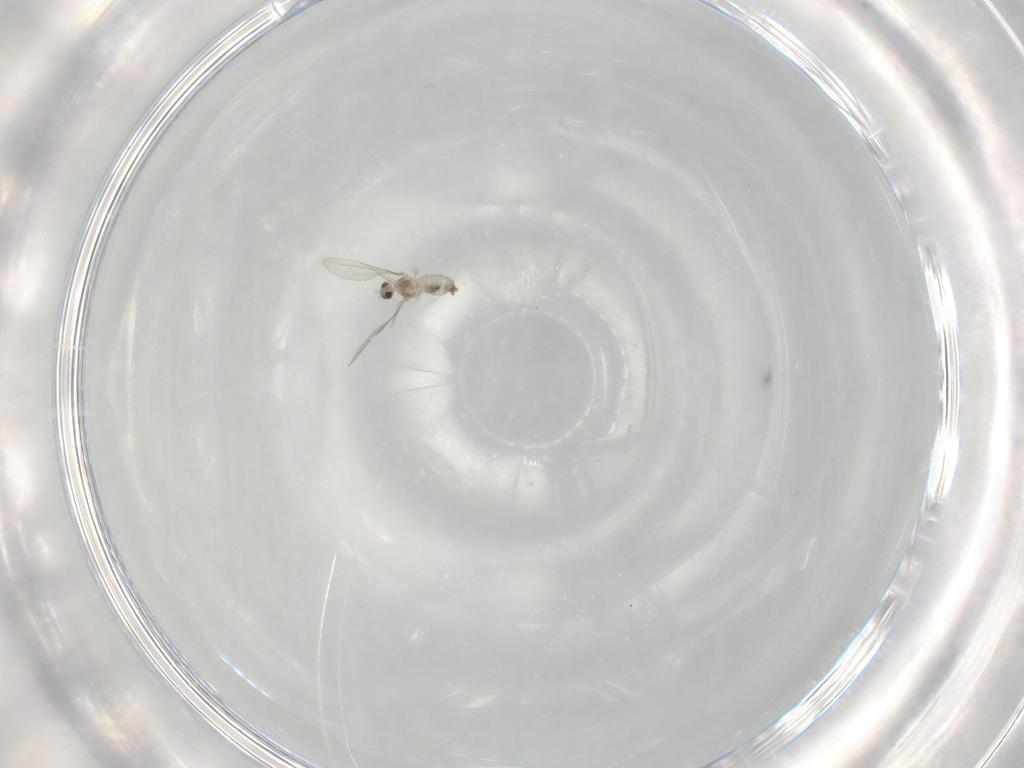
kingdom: Animalia
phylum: Arthropoda
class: Insecta
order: Diptera
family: Cecidomyiidae
